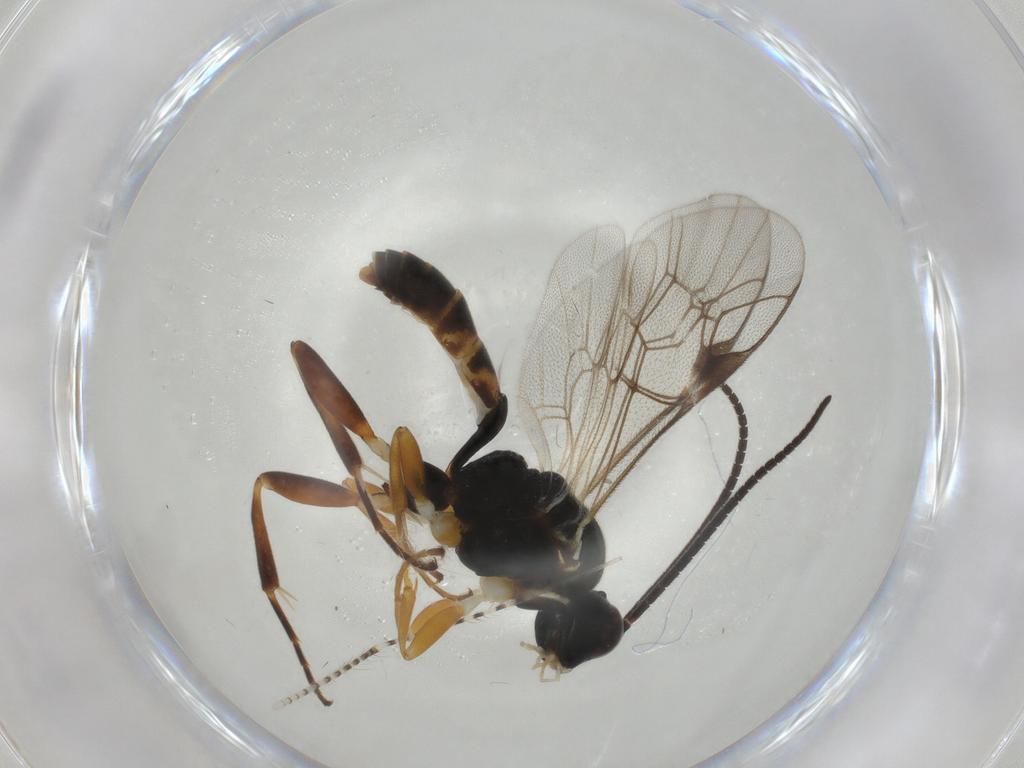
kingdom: Animalia
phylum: Arthropoda
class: Insecta
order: Hymenoptera
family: Ichneumonidae
